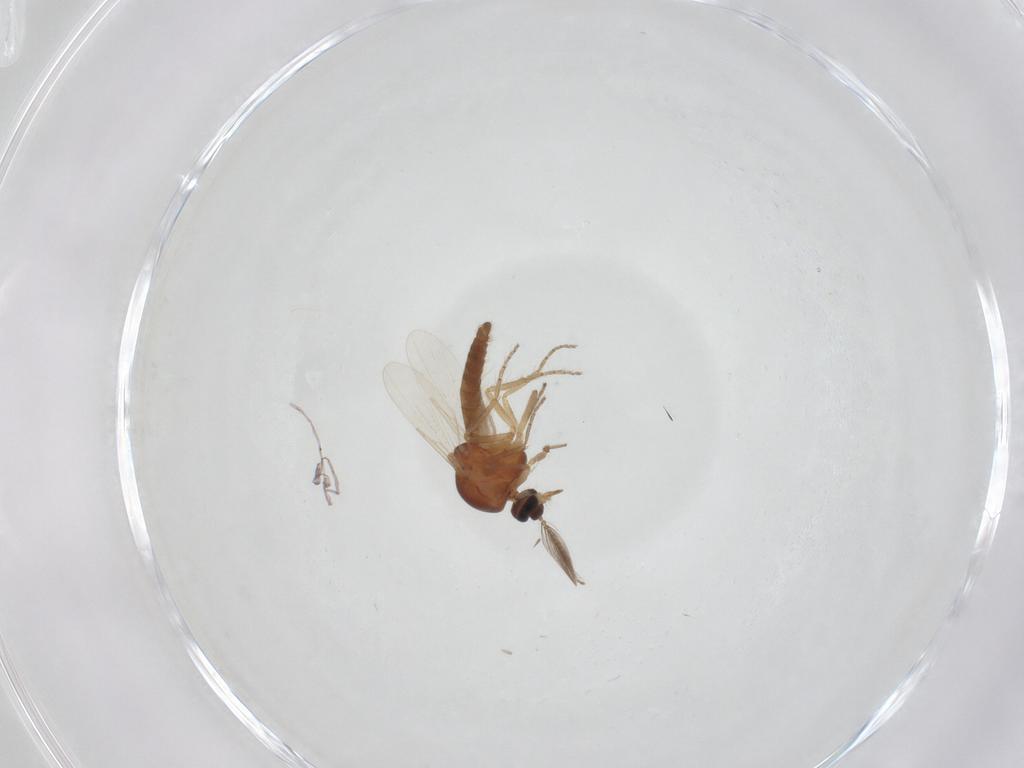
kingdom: Animalia
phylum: Arthropoda
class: Insecta
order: Diptera
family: Ceratopogonidae
